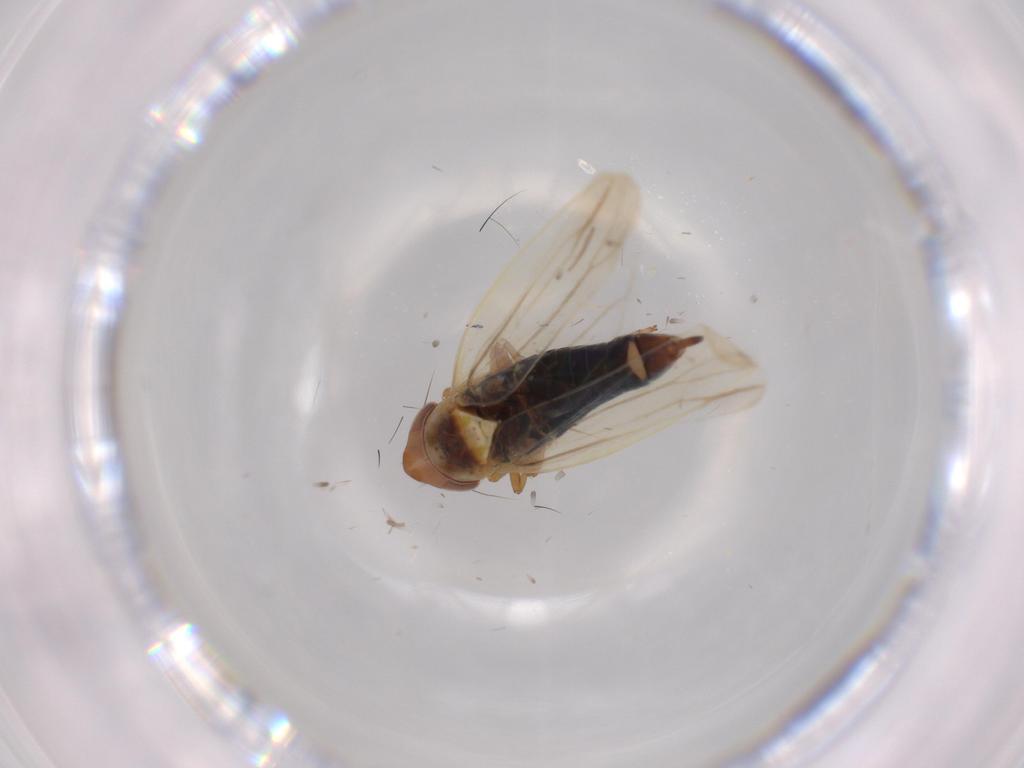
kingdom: Animalia
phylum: Arthropoda
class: Insecta
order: Hemiptera
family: Cicadellidae
